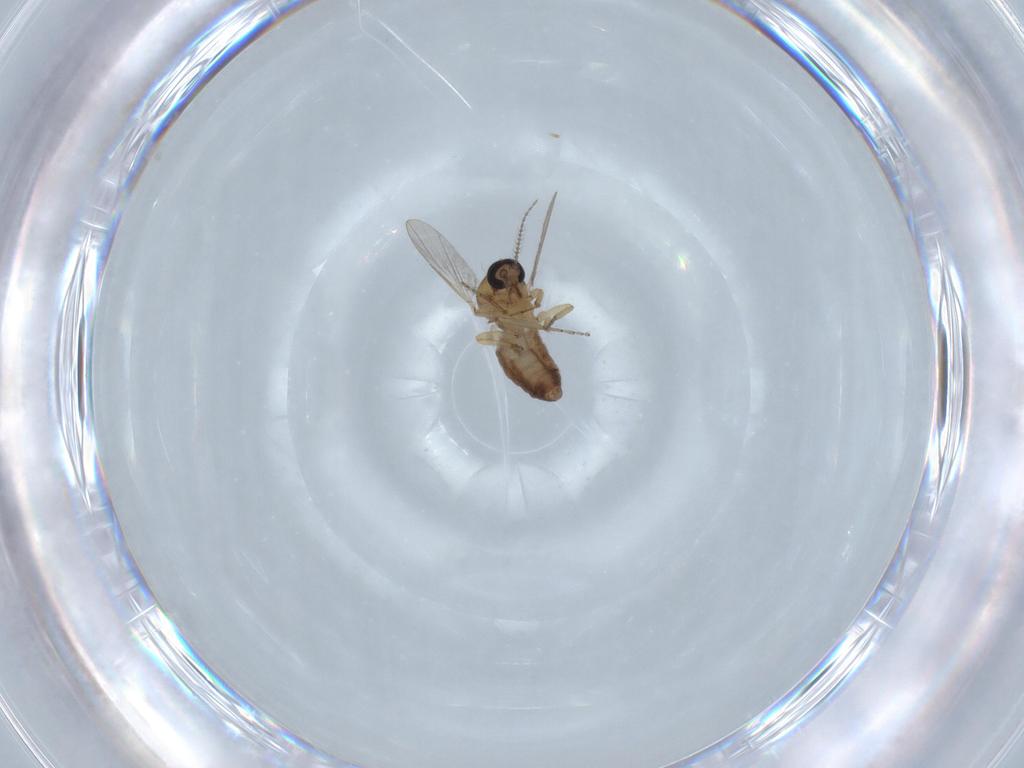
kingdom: Animalia
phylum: Arthropoda
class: Insecta
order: Diptera
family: Ceratopogonidae
